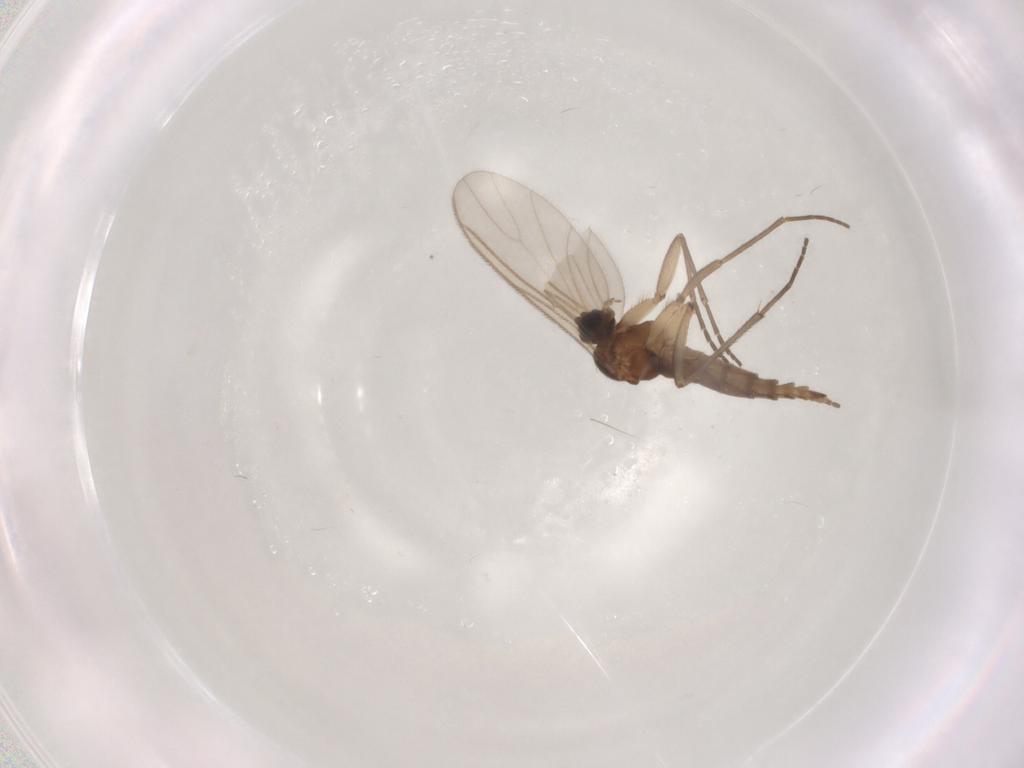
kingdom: Animalia
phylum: Arthropoda
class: Insecta
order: Diptera
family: Sciaridae
